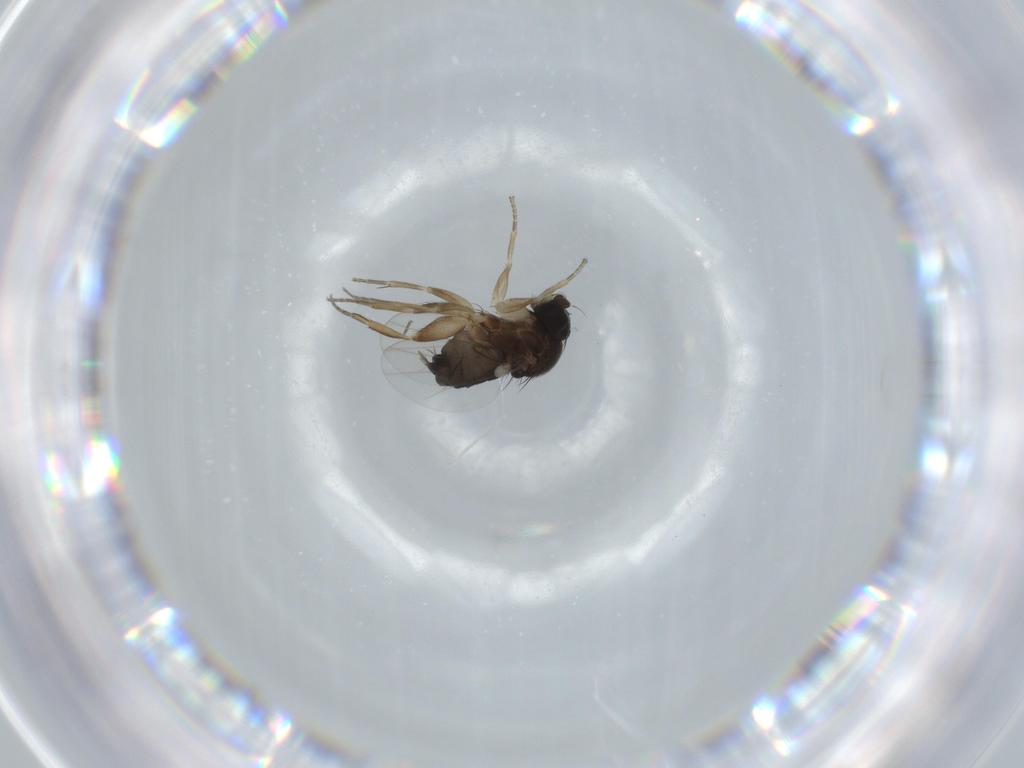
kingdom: Animalia
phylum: Arthropoda
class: Insecta
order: Diptera
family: Phoridae
